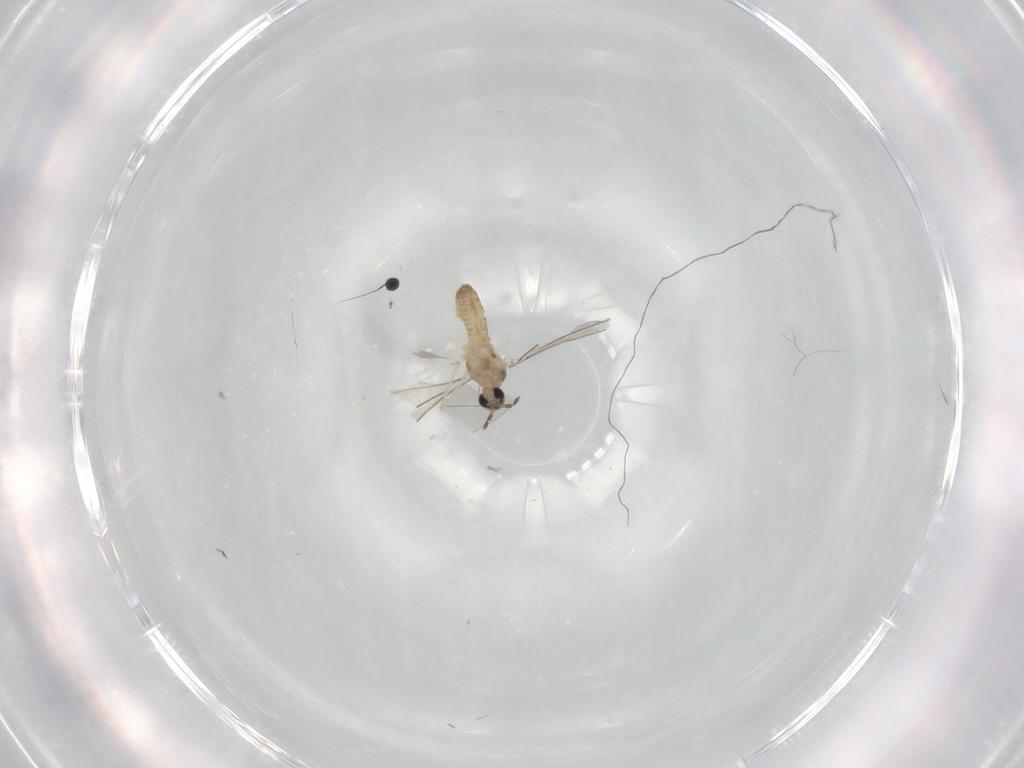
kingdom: Animalia
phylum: Arthropoda
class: Insecta
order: Diptera
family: Cecidomyiidae
